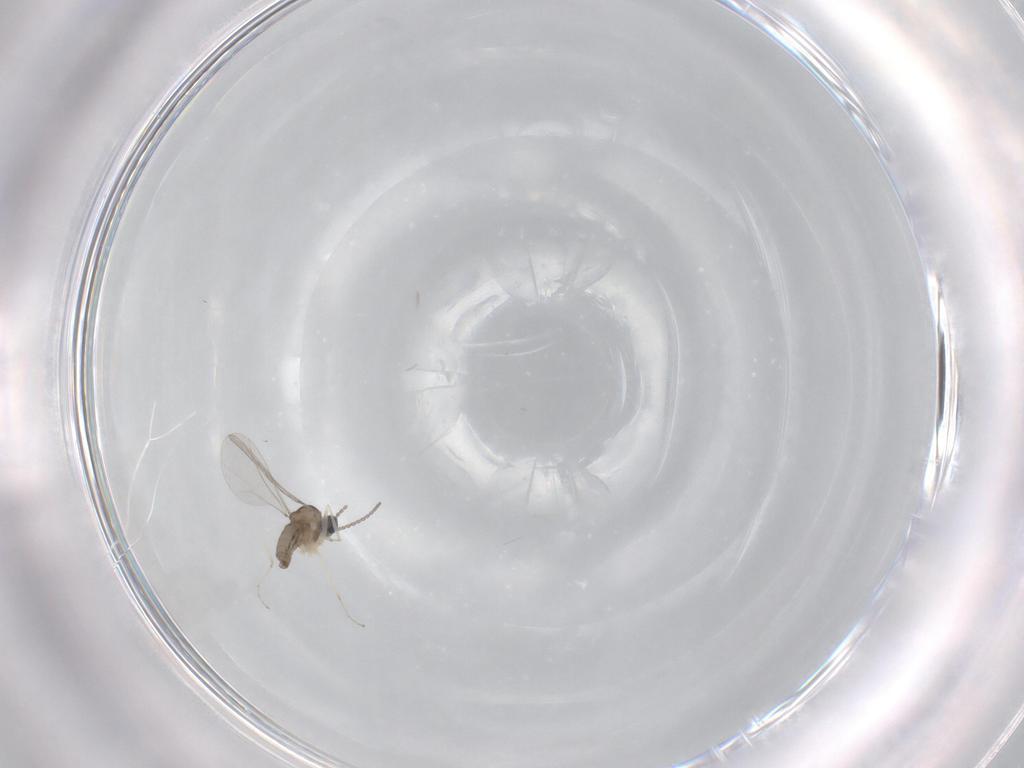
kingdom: Animalia
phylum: Arthropoda
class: Insecta
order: Diptera
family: Cecidomyiidae
